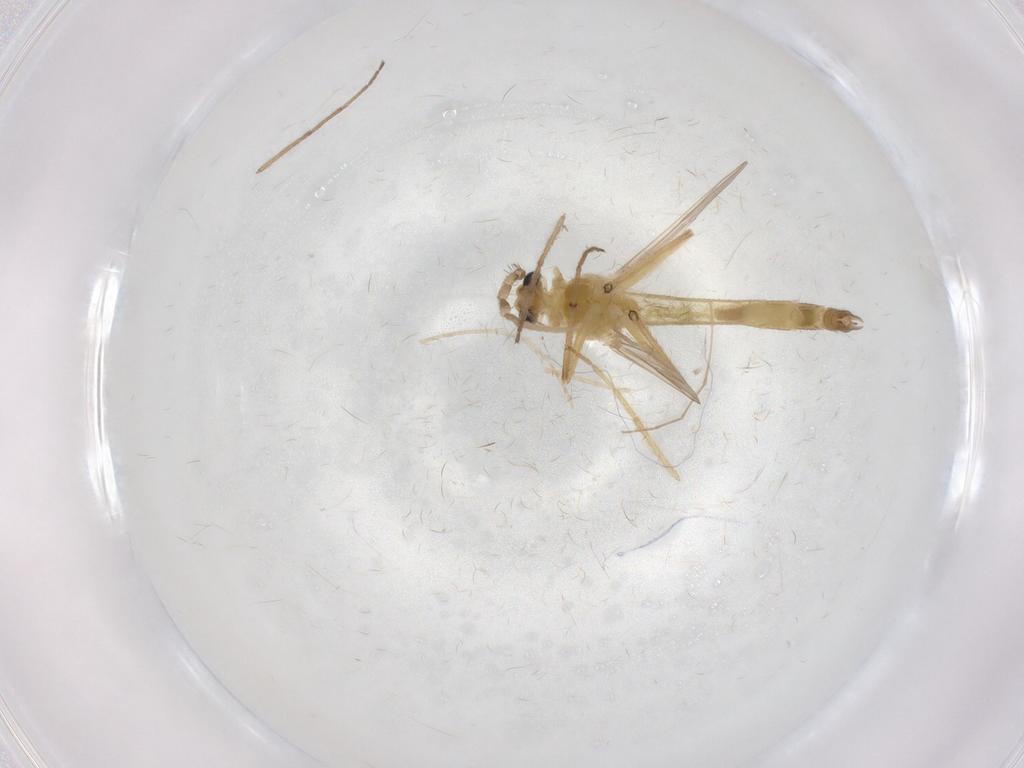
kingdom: Animalia
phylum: Arthropoda
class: Insecta
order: Diptera
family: Chironomidae
